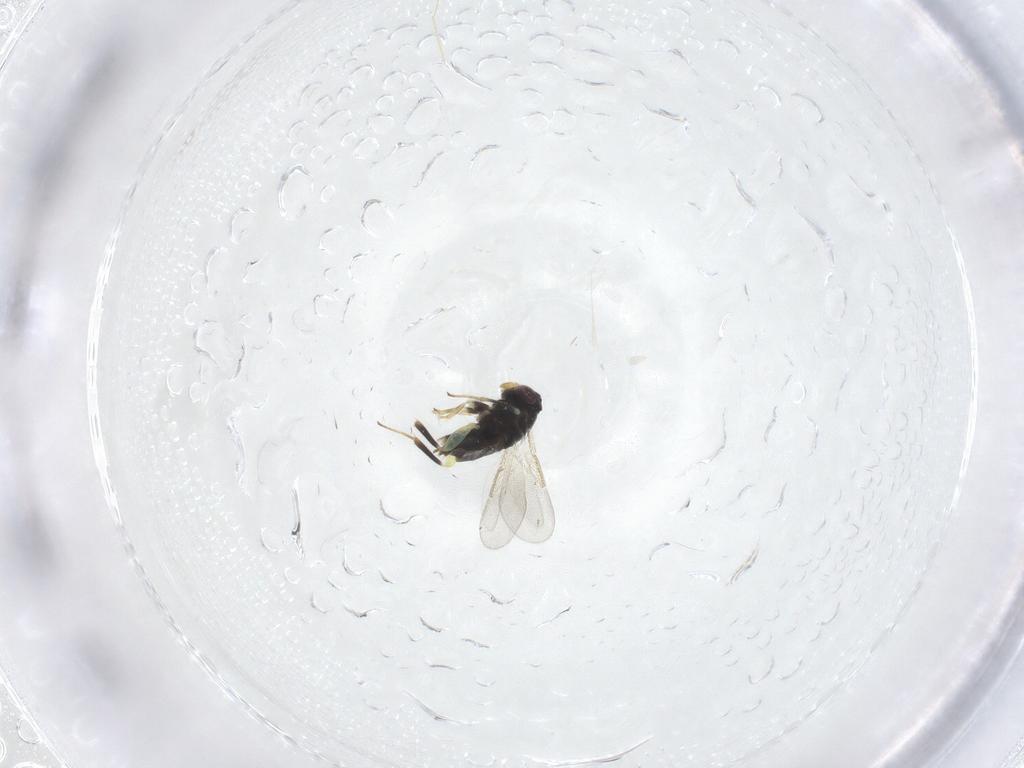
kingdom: Animalia
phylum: Arthropoda
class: Insecta
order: Hymenoptera
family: Aphelinidae
